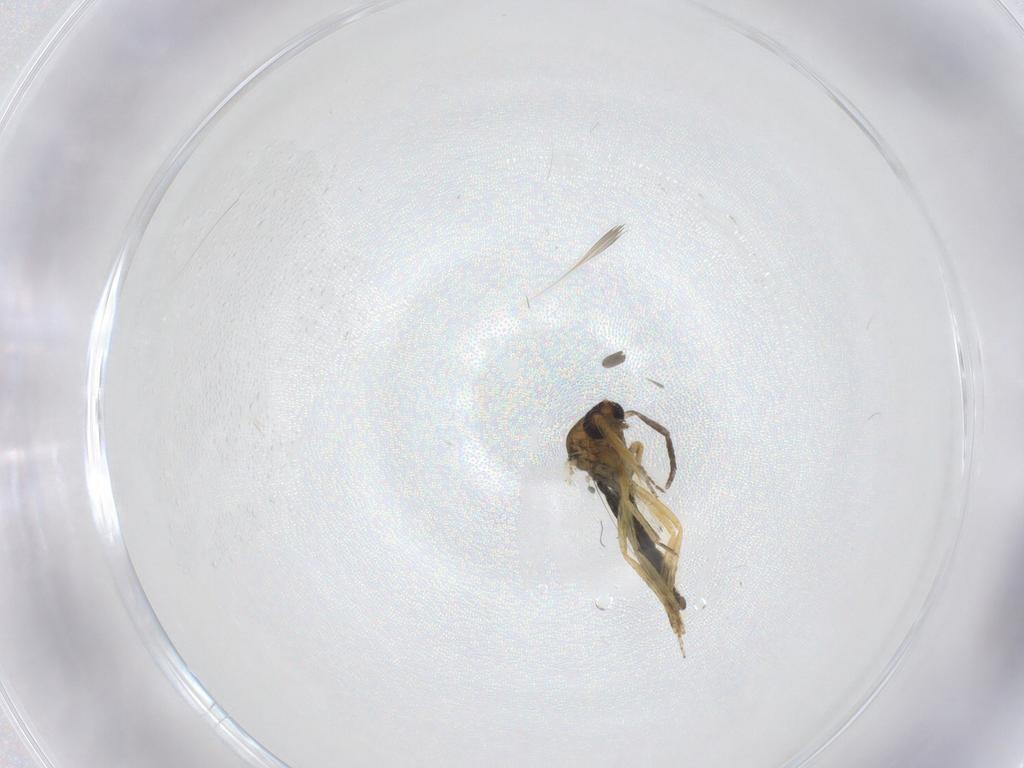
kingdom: Animalia
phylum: Arthropoda
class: Insecta
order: Diptera
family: Ceratopogonidae
